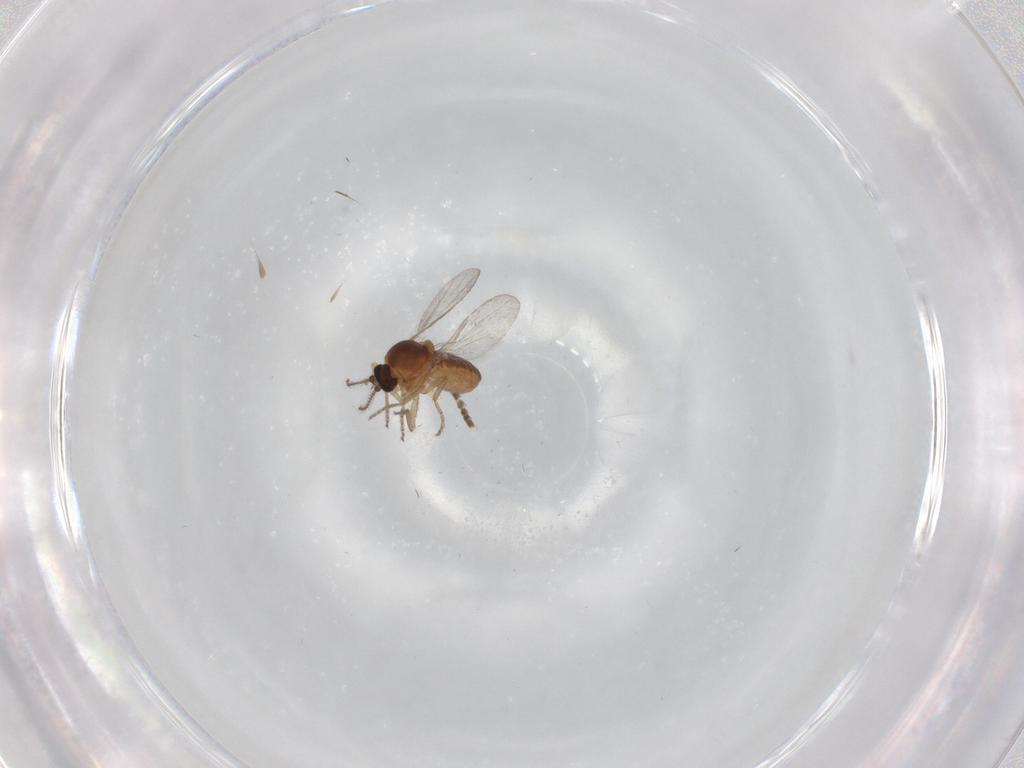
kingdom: Animalia
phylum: Arthropoda
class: Insecta
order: Diptera
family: Ceratopogonidae
